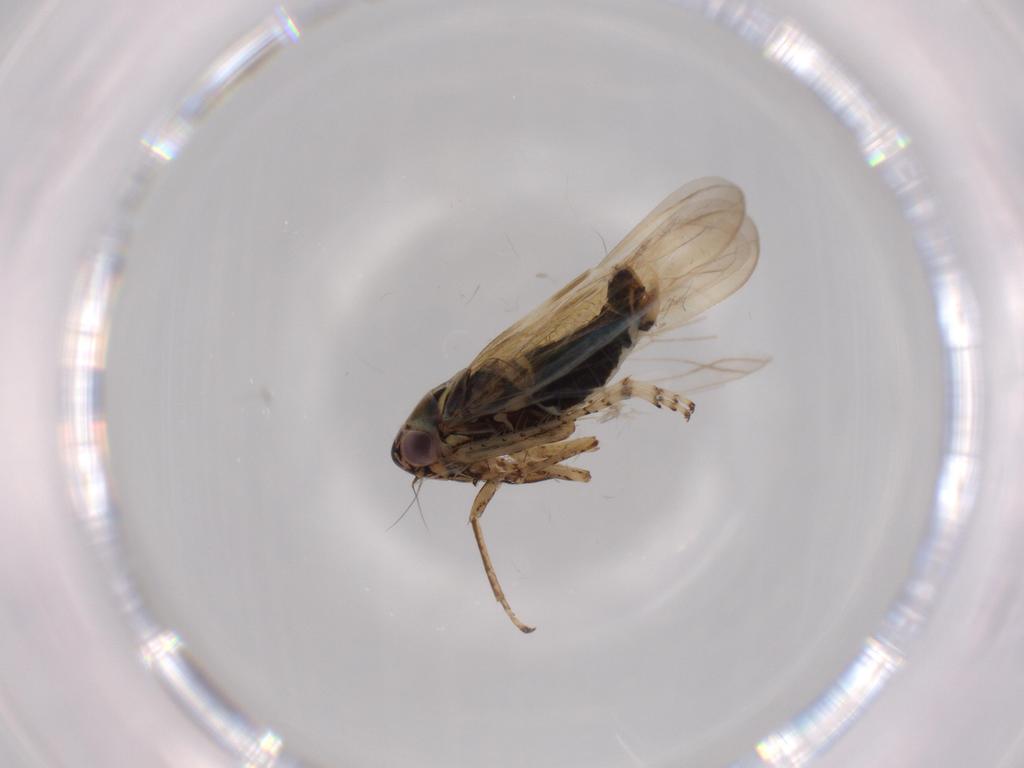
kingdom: Animalia
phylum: Arthropoda
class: Insecta
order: Hemiptera
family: Cicadellidae
